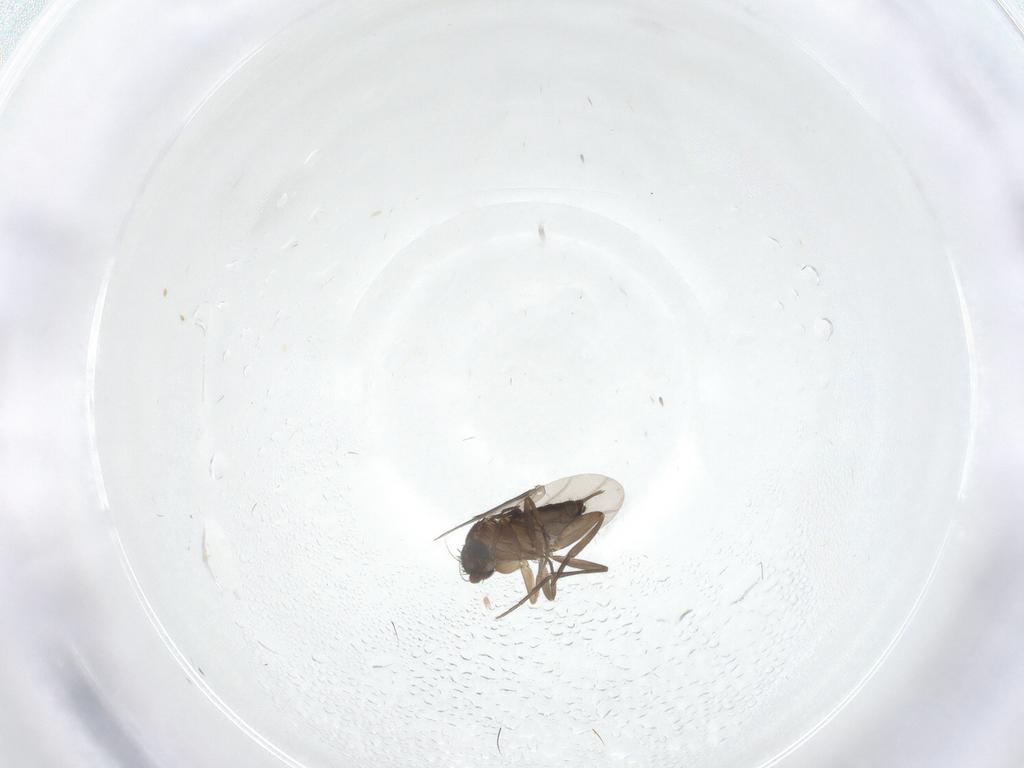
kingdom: Animalia
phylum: Arthropoda
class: Insecta
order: Diptera
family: Phoridae
